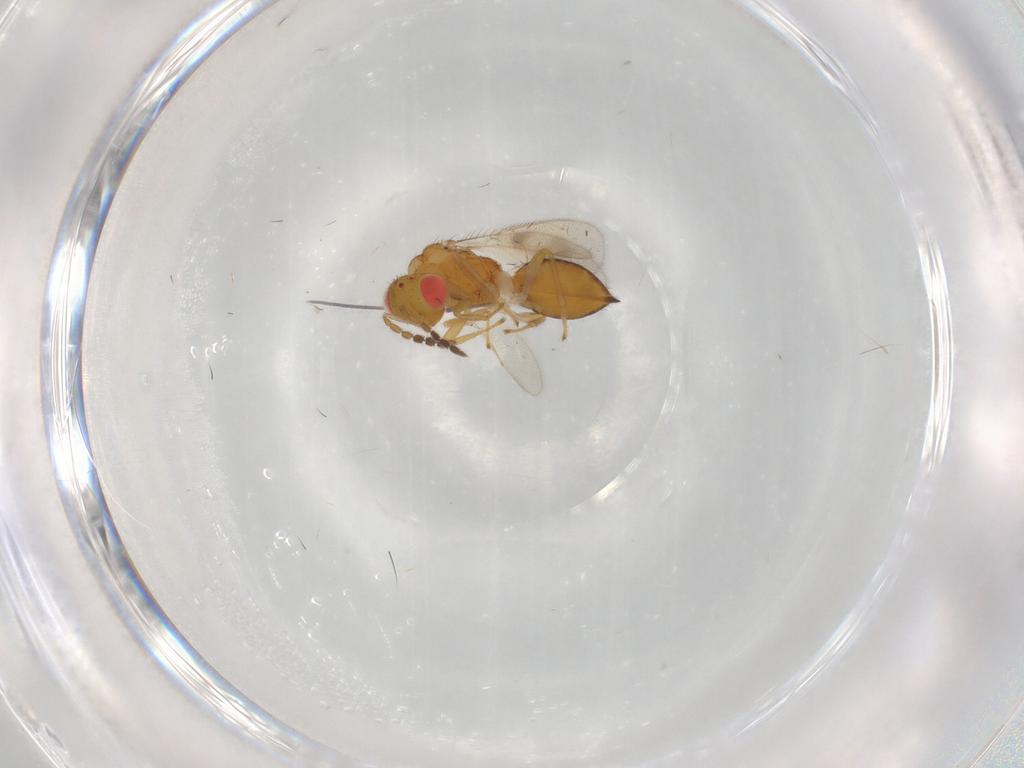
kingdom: Animalia
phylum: Arthropoda
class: Insecta
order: Hymenoptera
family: Eulophidae
